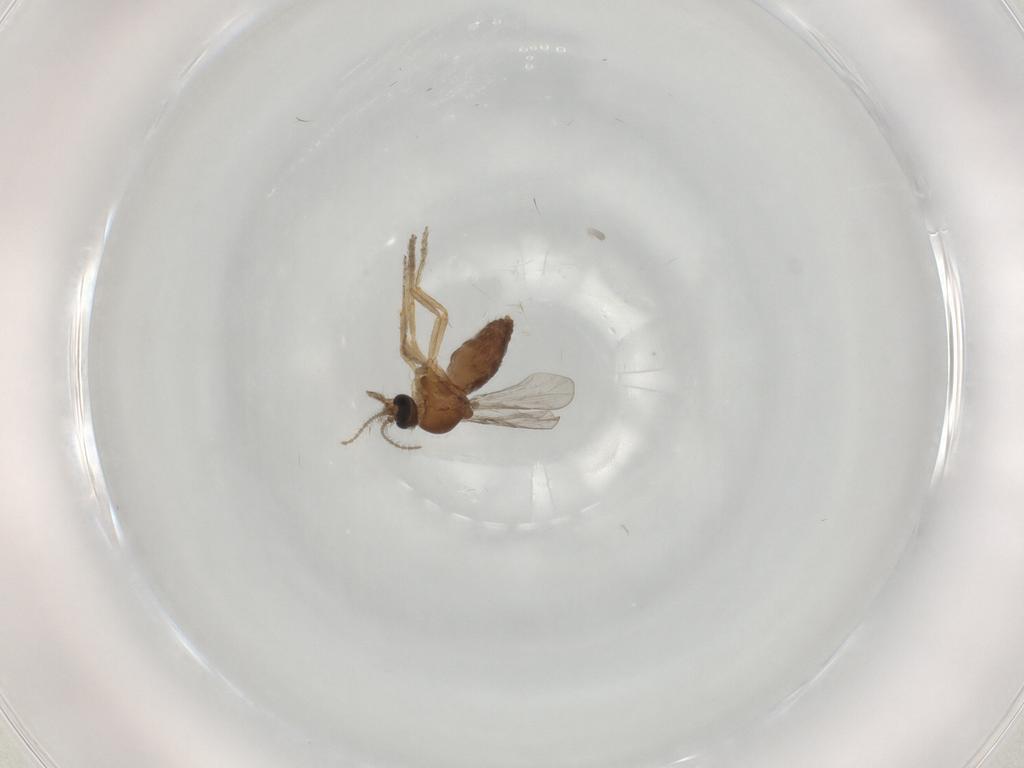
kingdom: Animalia
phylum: Arthropoda
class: Insecta
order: Diptera
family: Ceratopogonidae
